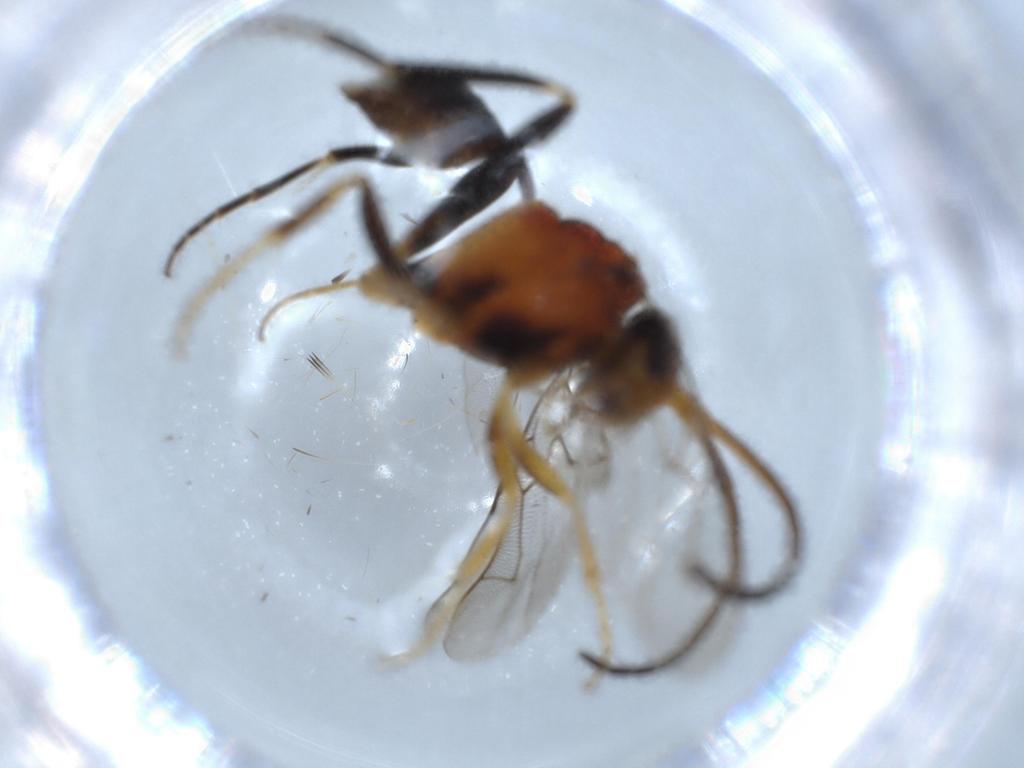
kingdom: Animalia
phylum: Arthropoda
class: Insecta
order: Hymenoptera
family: Evaniidae
